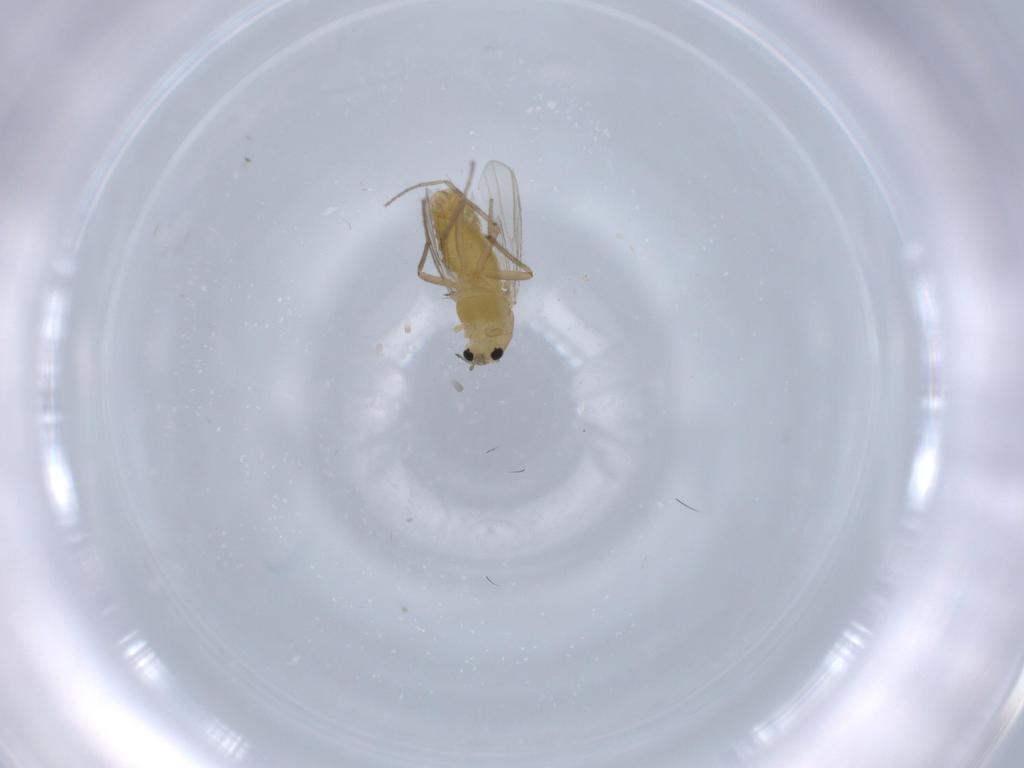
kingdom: Animalia
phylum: Arthropoda
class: Insecta
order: Diptera
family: Chironomidae
